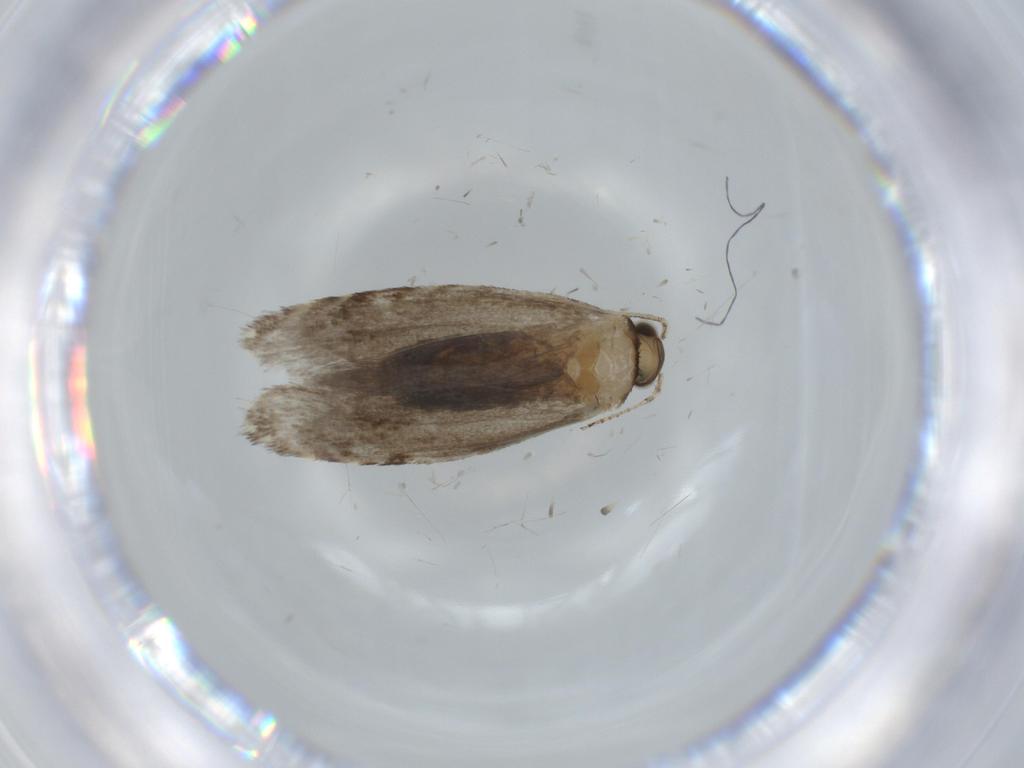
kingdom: Animalia
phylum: Arthropoda
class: Insecta
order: Lepidoptera
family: Tineidae
